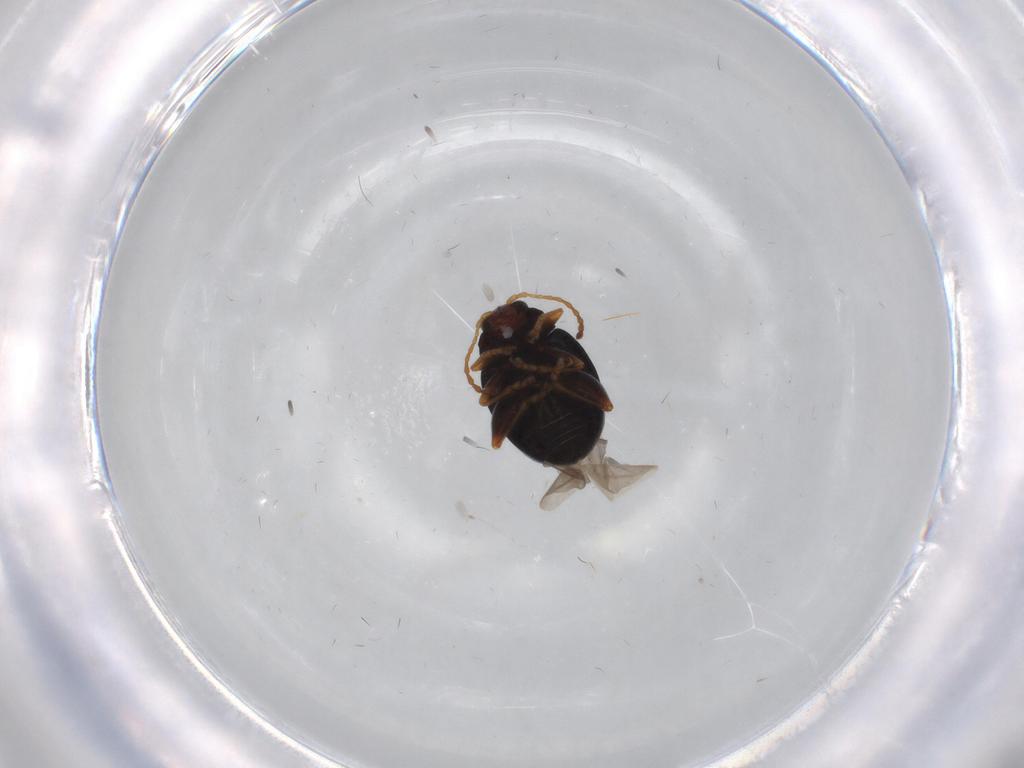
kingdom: Animalia
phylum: Arthropoda
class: Insecta
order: Coleoptera
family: Chrysomelidae
